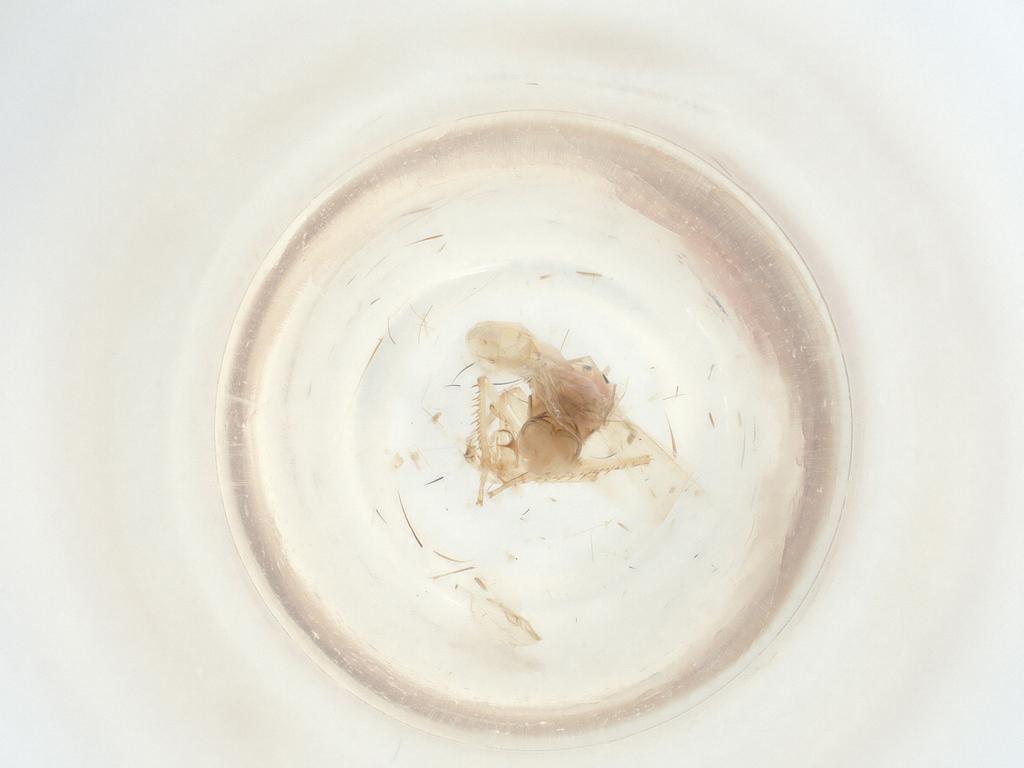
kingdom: Animalia
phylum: Arthropoda
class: Insecta
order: Hemiptera
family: Cicadellidae
